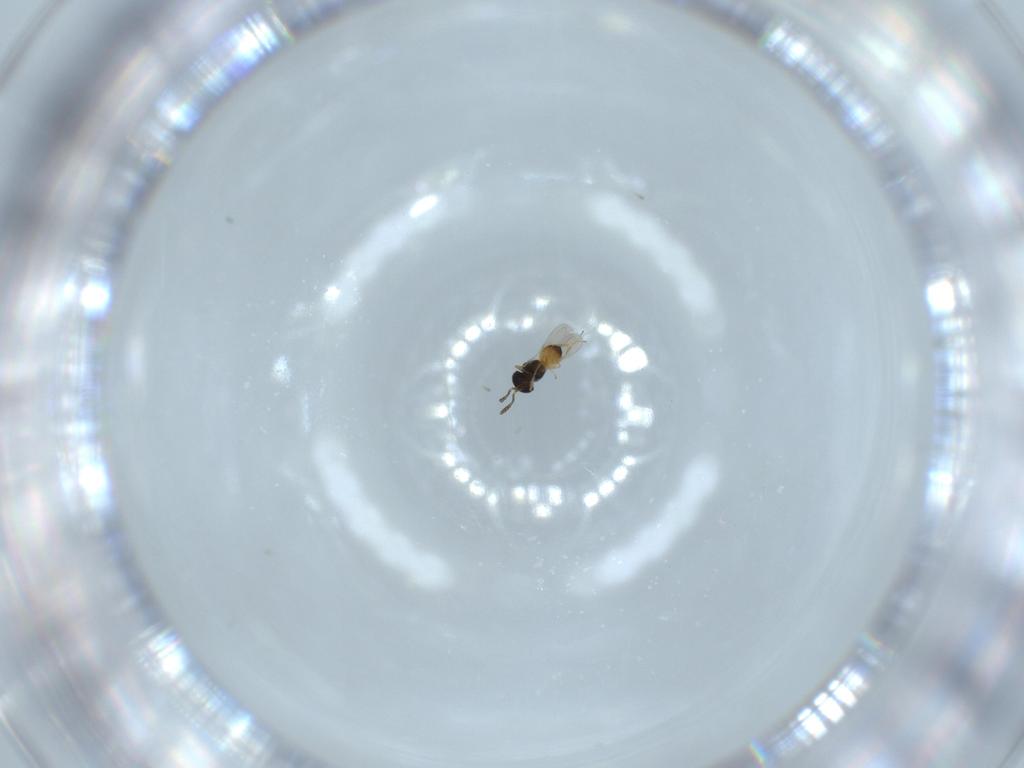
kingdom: Animalia
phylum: Arthropoda
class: Insecta
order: Hymenoptera
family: Scelionidae
